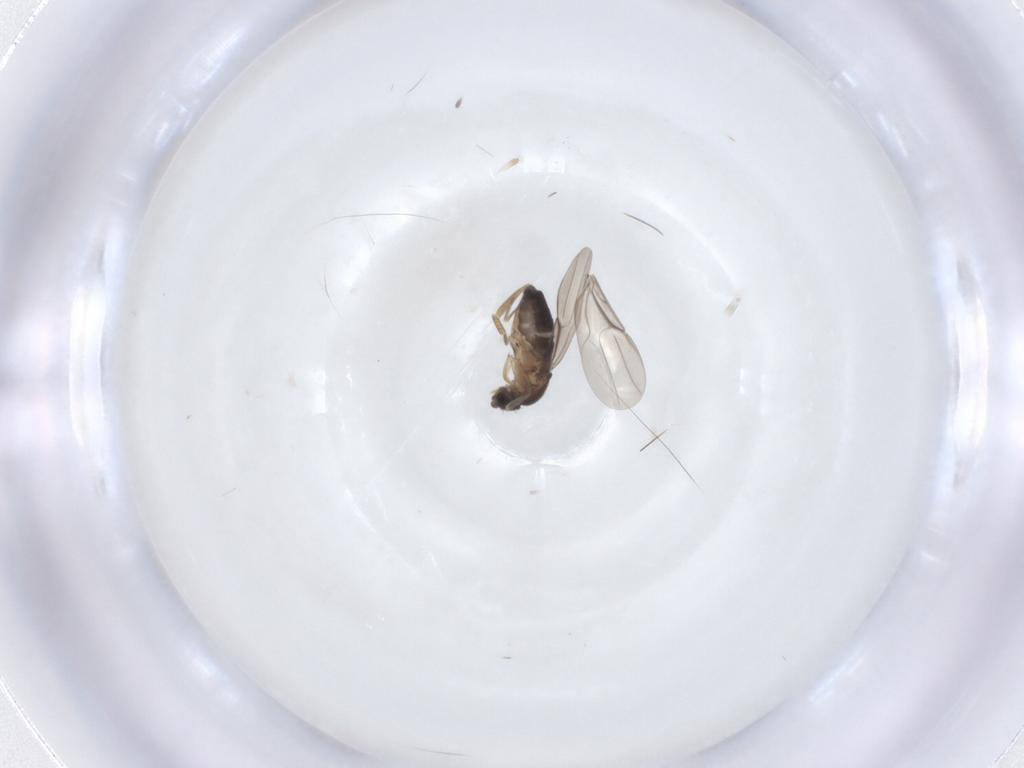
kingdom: Animalia
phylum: Arthropoda
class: Insecta
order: Diptera
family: Phoridae
